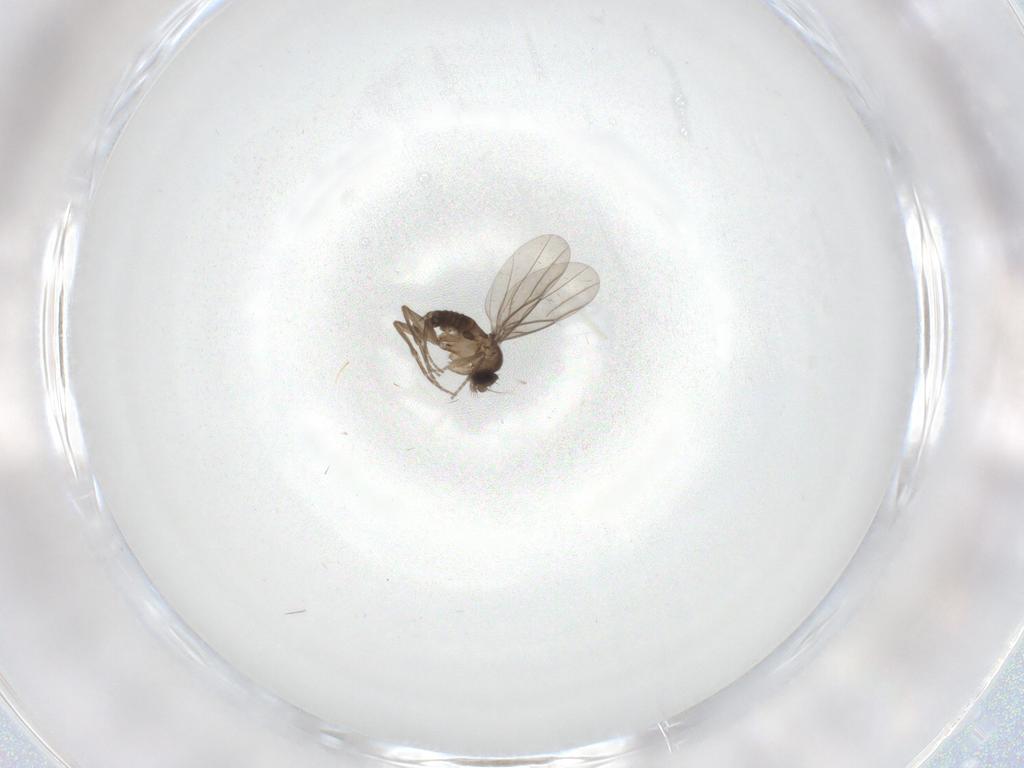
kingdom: Animalia
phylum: Arthropoda
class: Insecta
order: Diptera
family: Phoridae
